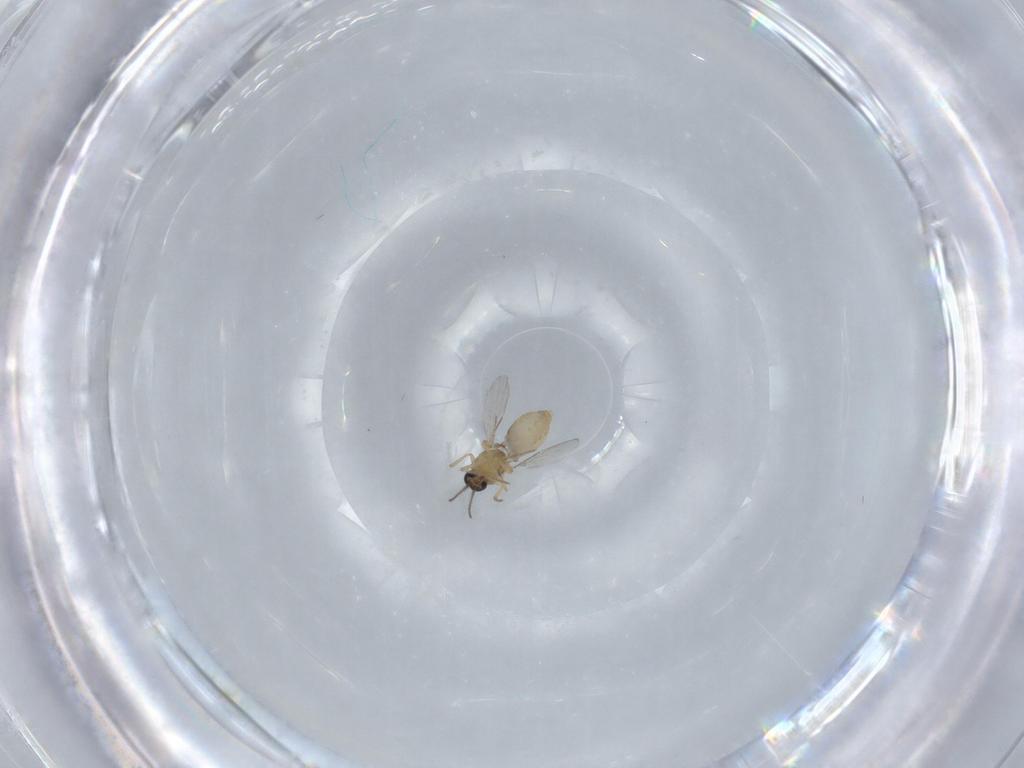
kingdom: Animalia
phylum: Arthropoda
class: Insecta
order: Diptera
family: Ceratopogonidae
